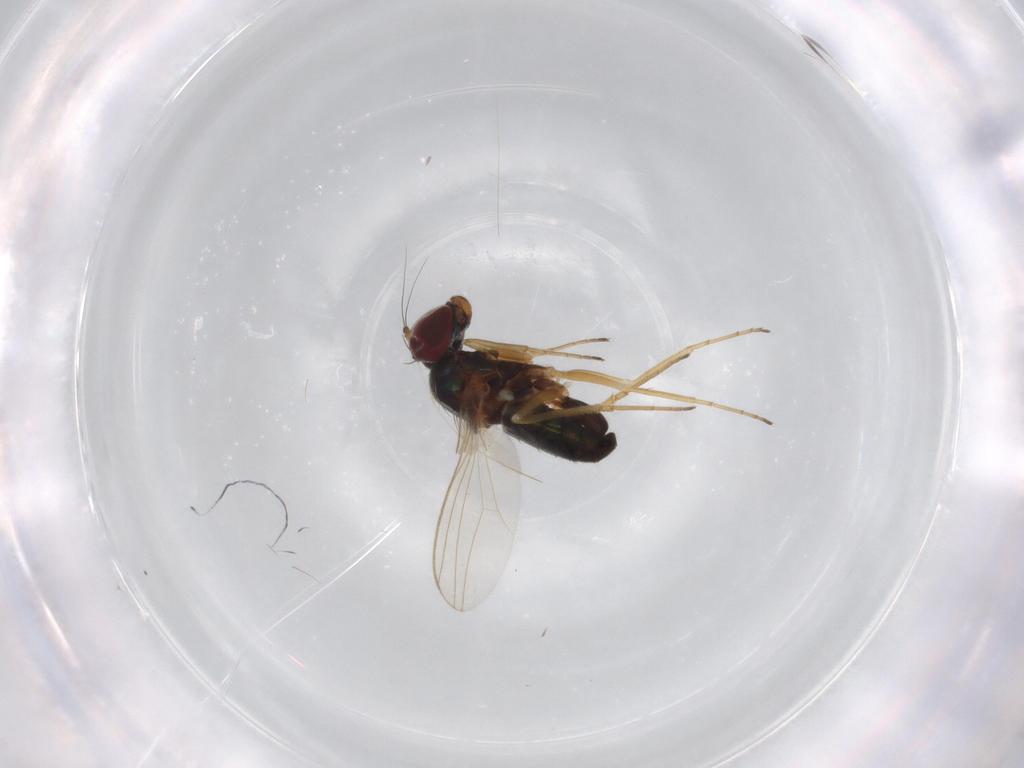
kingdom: Animalia
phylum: Arthropoda
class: Insecta
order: Diptera
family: Dolichopodidae
